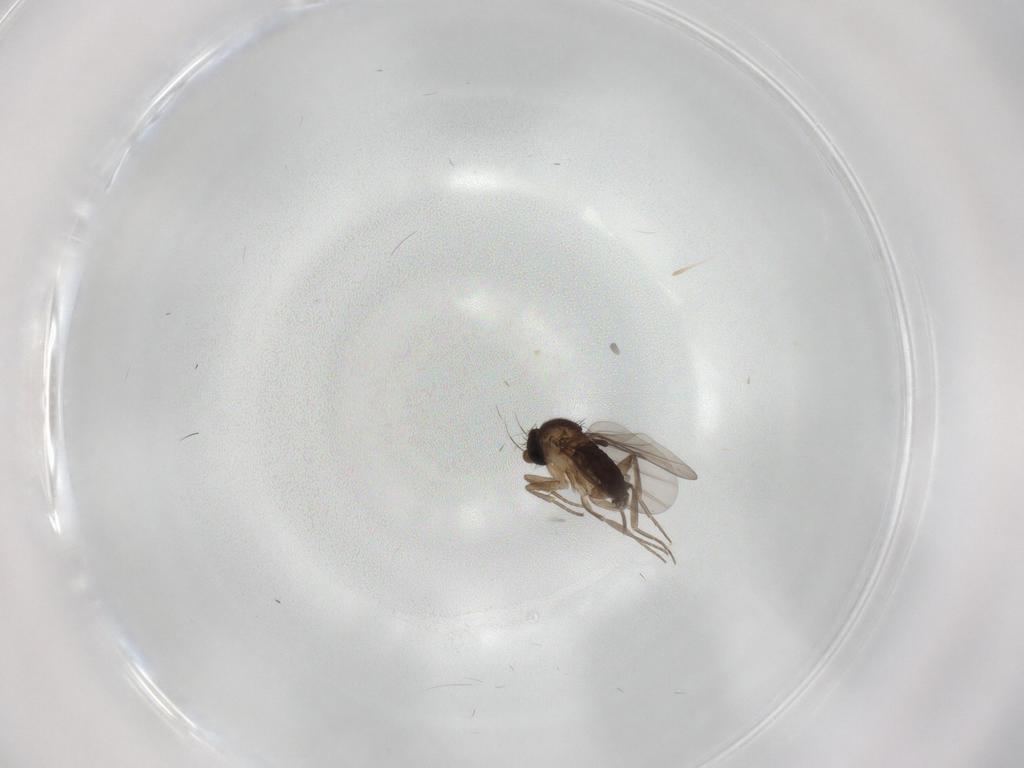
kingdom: Animalia
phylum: Arthropoda
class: Insecta
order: Diptera
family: Phoridae
